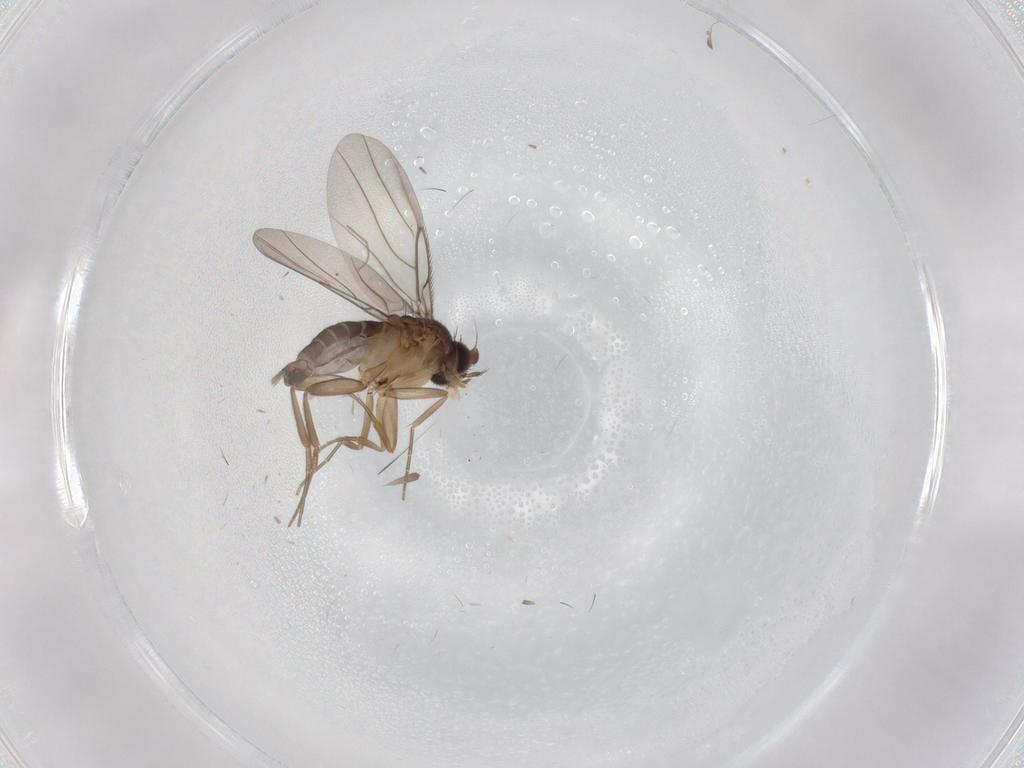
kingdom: Animalia
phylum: Arthropoda
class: Insecta
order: Diptera
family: Phoridae
